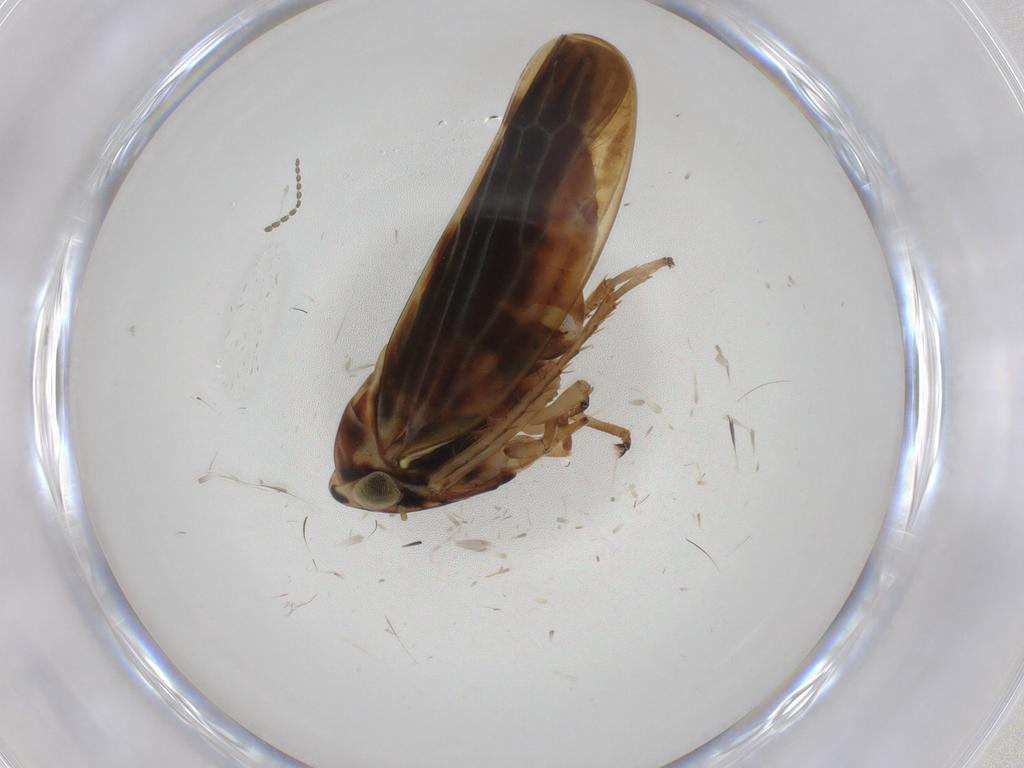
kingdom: Animalia
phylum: Arthropoda
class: Insecta
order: Hemiptera
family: Cicadellidae
